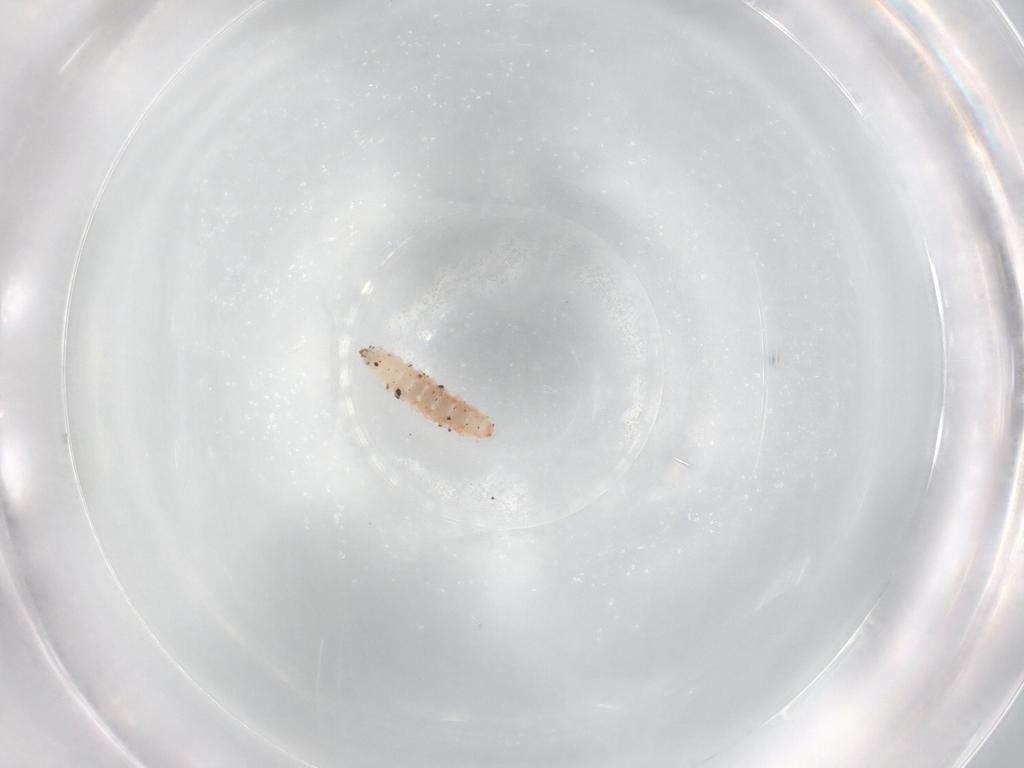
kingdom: Animalia
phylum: Arthropoda
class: Insecta
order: Diptera
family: Cecidomyiidae
